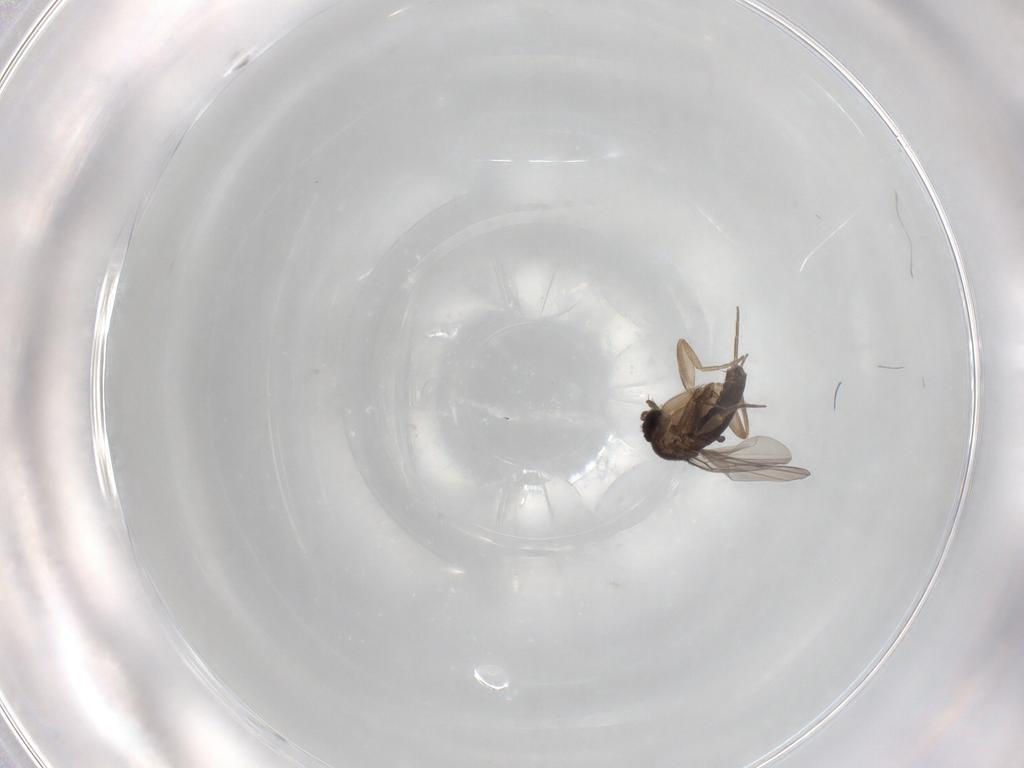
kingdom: Animalia
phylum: Arthropoda
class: Insecta
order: Diptera
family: Phoridae
